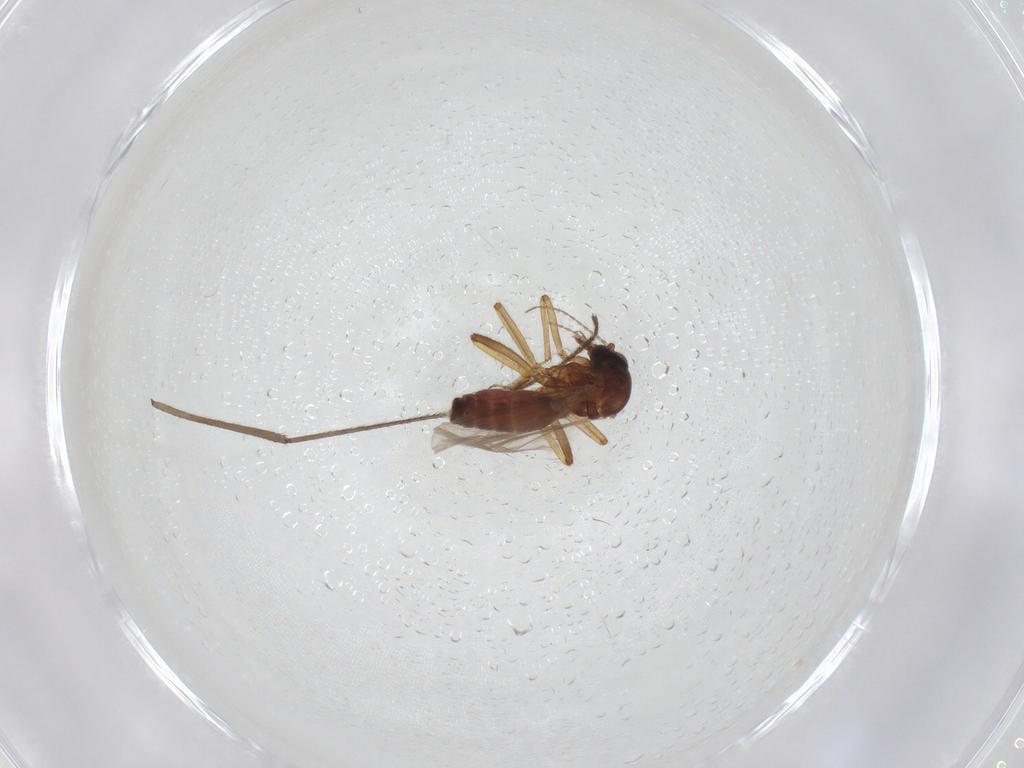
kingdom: Animalia
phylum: Arthropoda
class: Insecta
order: Diptera
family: Ceratopogonidae
